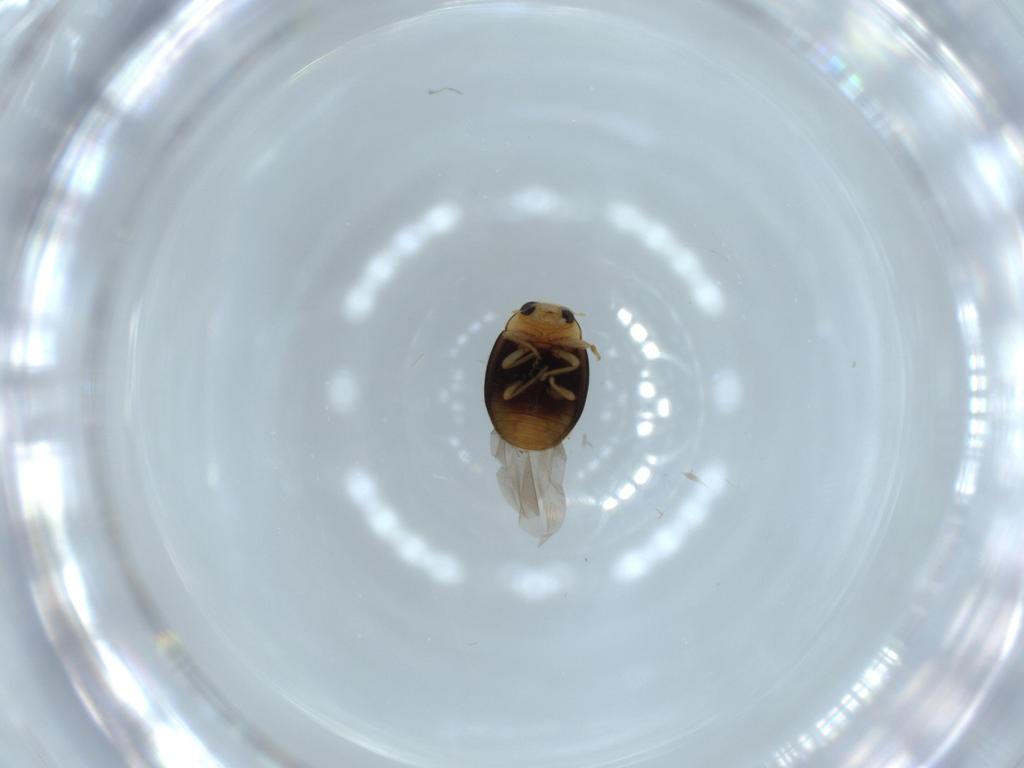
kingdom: Animalia
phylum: Arthropoda
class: Insecta
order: Coleoptera
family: Coccinellidae
